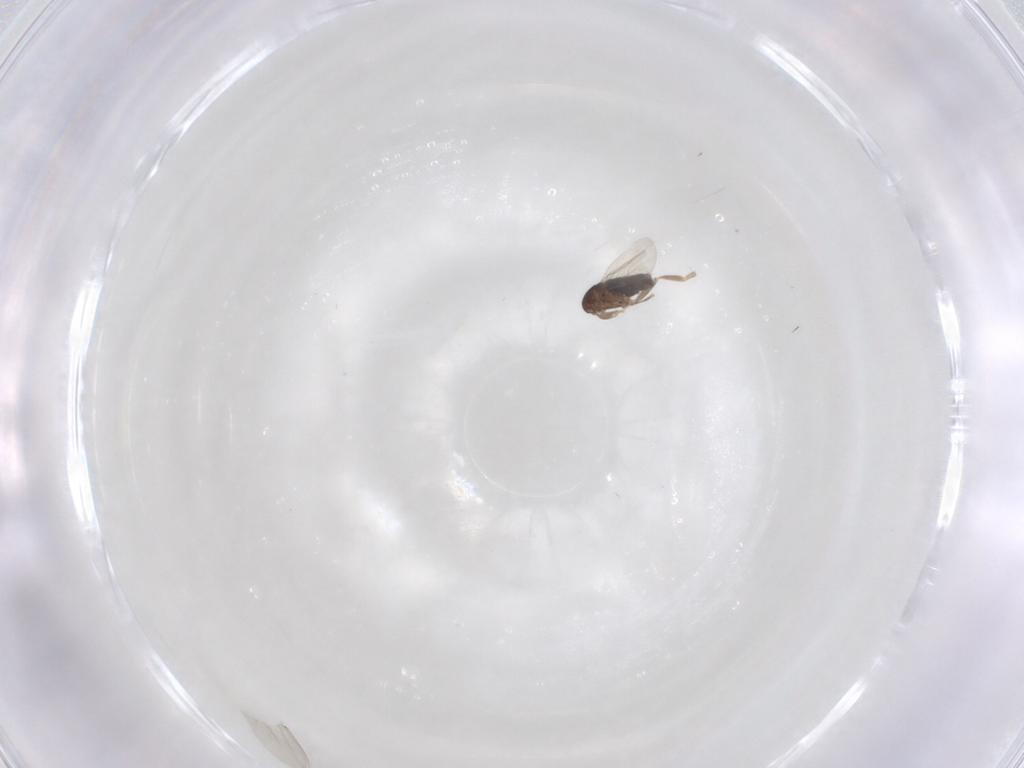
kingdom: Animalia
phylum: Arthropoda
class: Insecta
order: Diptera
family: Phoridae
